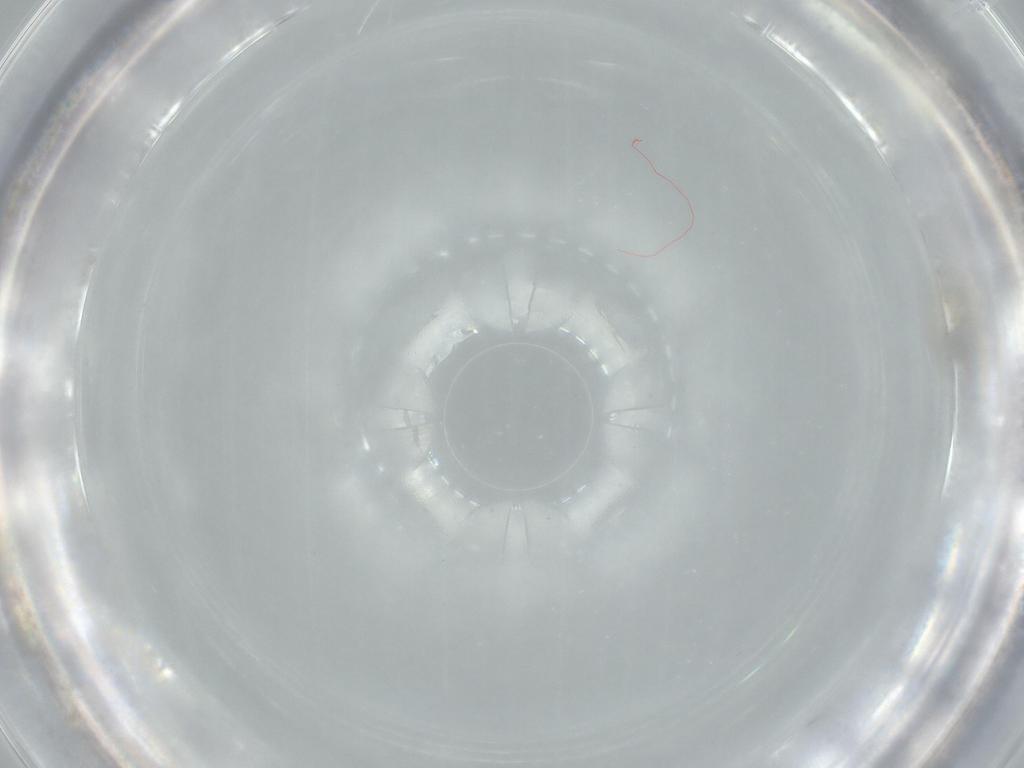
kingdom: Animalia
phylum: Arthropoda
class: Insecta
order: Diptera
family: Cecidomyiidae
